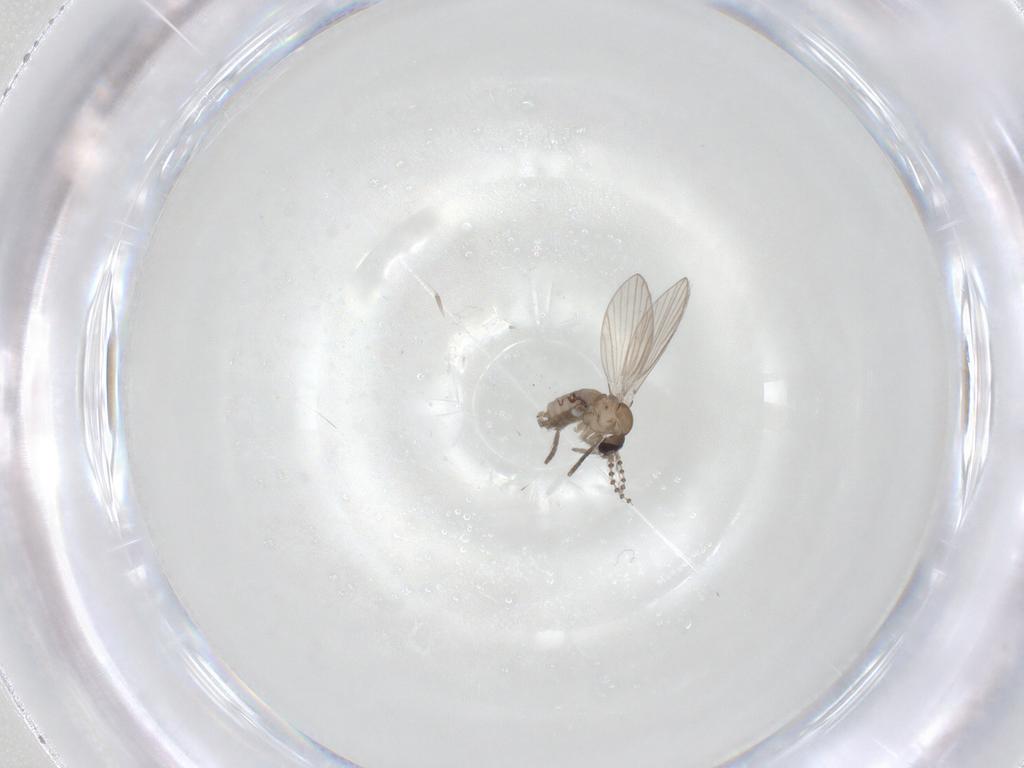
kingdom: Animalia
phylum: Arthropoda
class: Insecta
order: Diptera
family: Psychodidae
